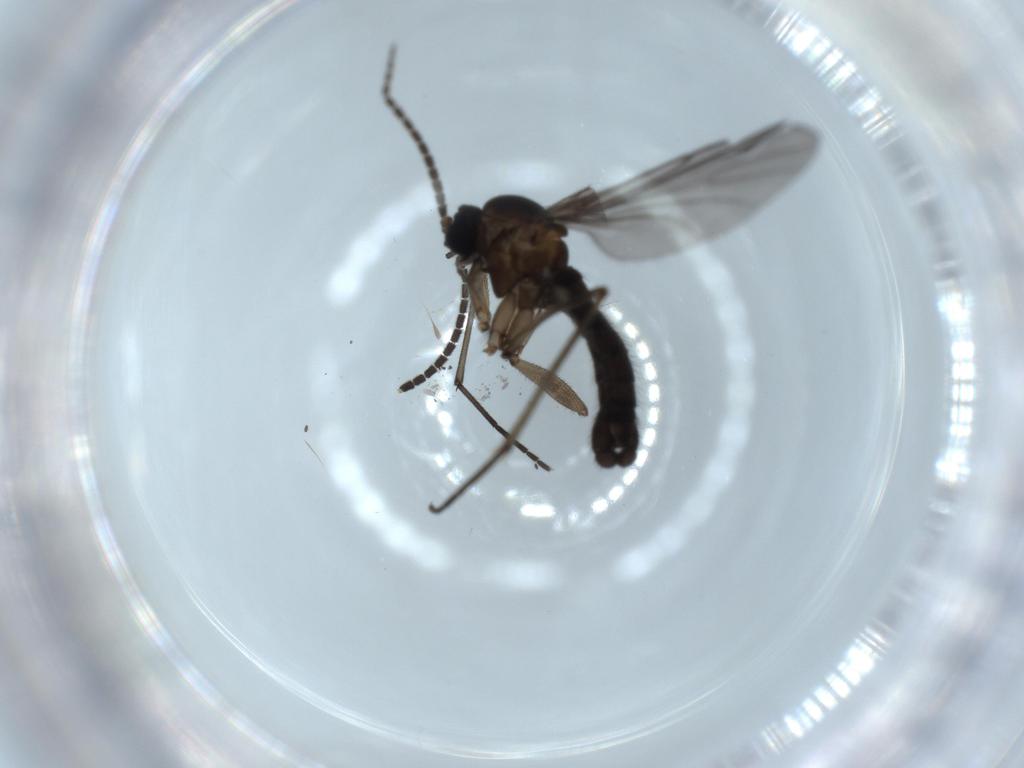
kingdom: Animalia
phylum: Arthropoda
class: Insecta
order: Diptera
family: Sciaridae
